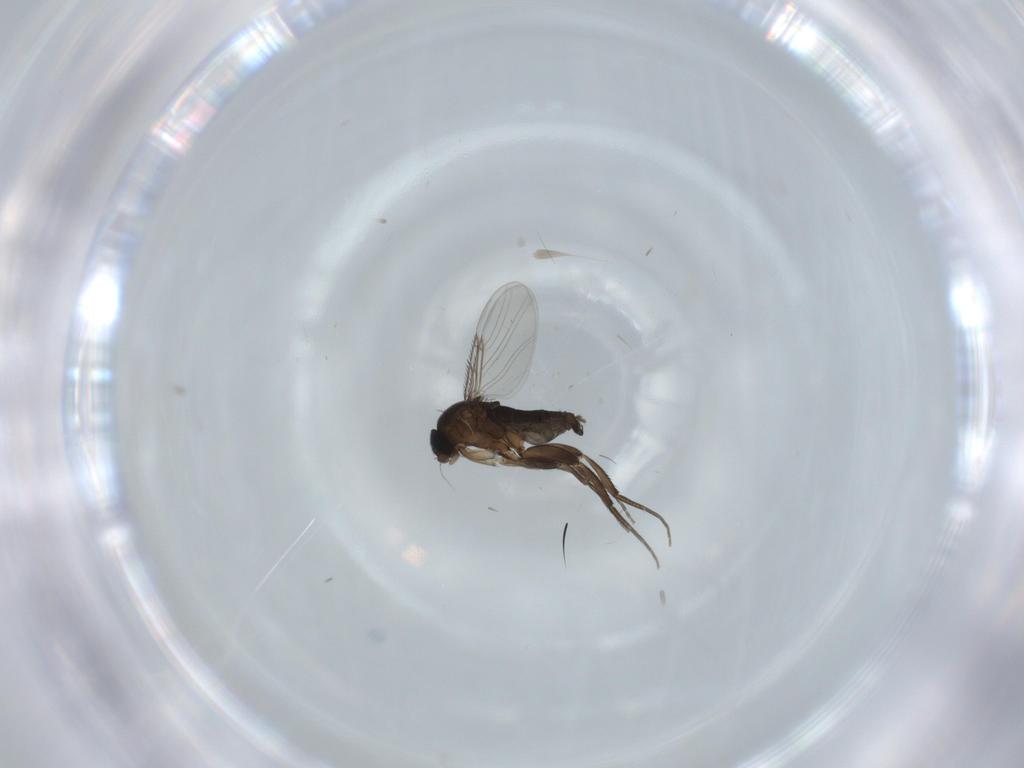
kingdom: Animalia
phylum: Arthropoda
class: Insecta
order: Diptera
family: Phoridae
